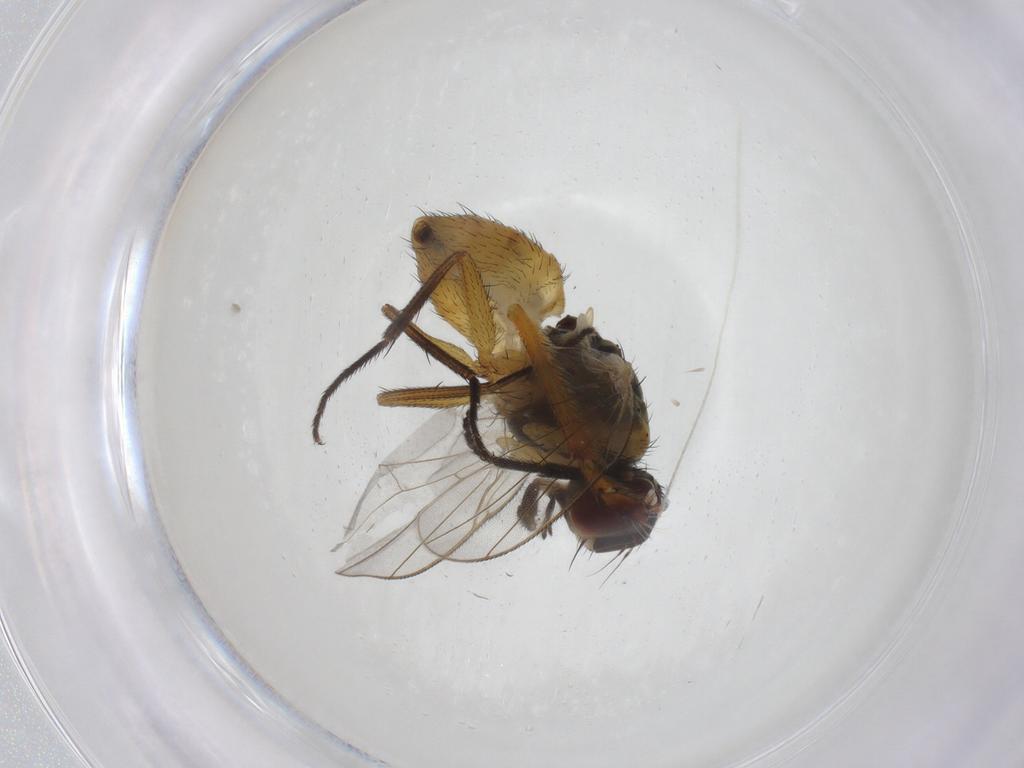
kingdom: Animalia
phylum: Arthropoda
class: Insecta
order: Diptera
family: Muscidae
